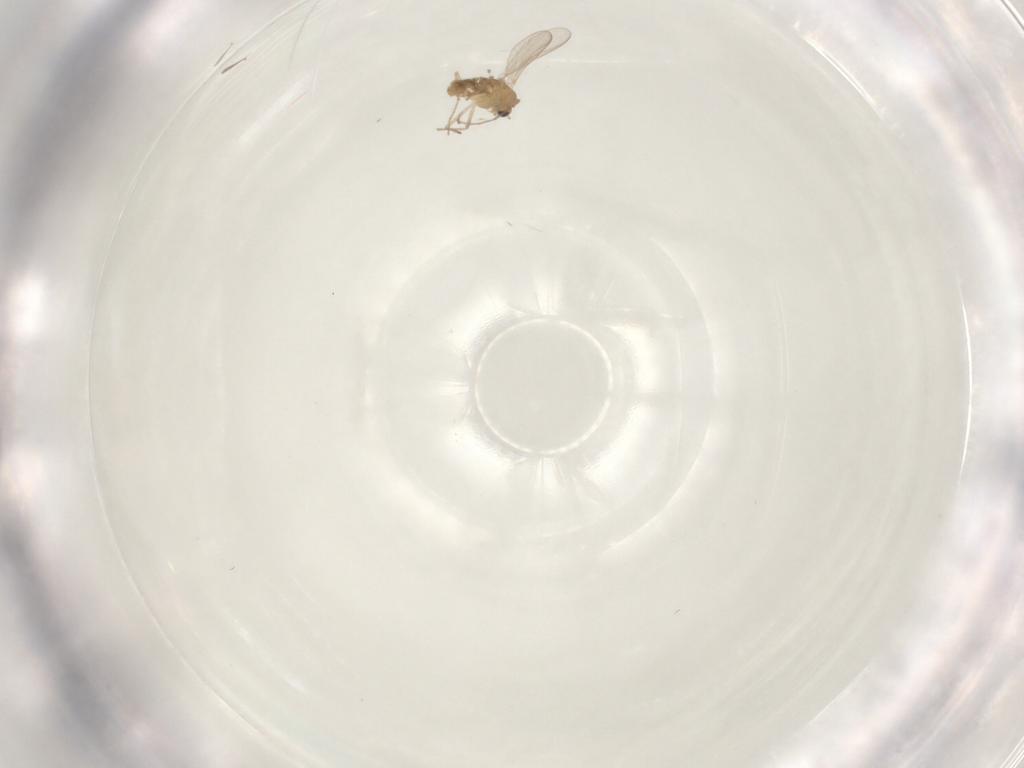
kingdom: Animalia
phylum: Arthropoda
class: Insecta
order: Diptera
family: Chironomidae
